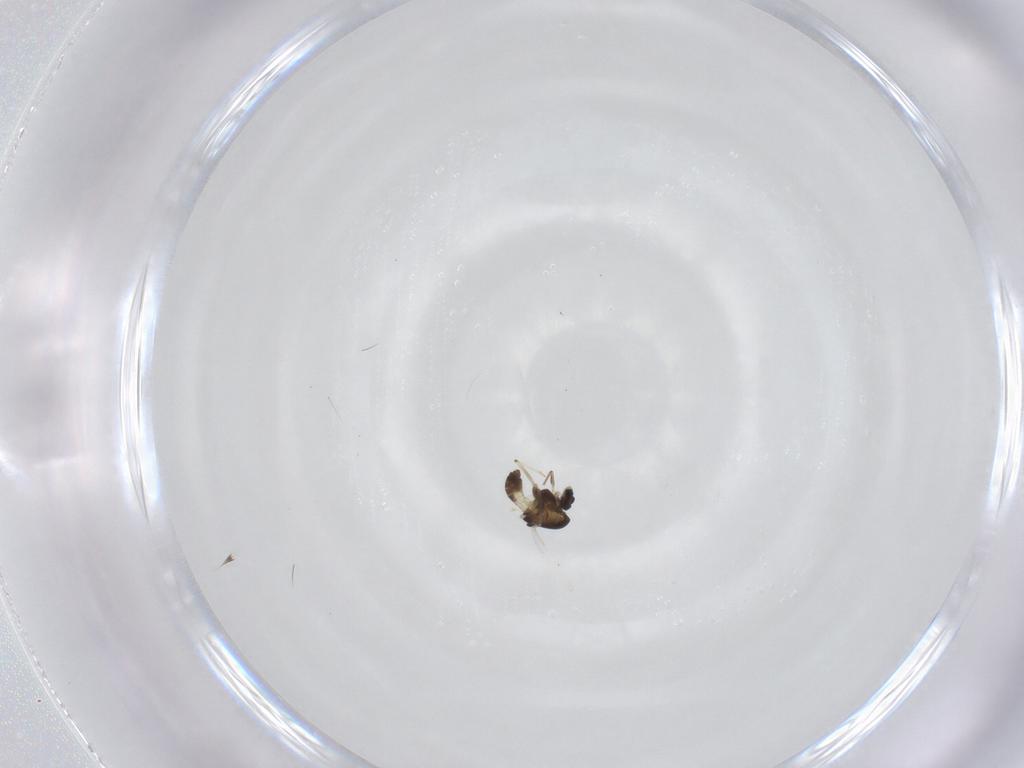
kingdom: Animalia
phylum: Arthropoda
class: Insecta
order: Diptera
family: Chironomidae
